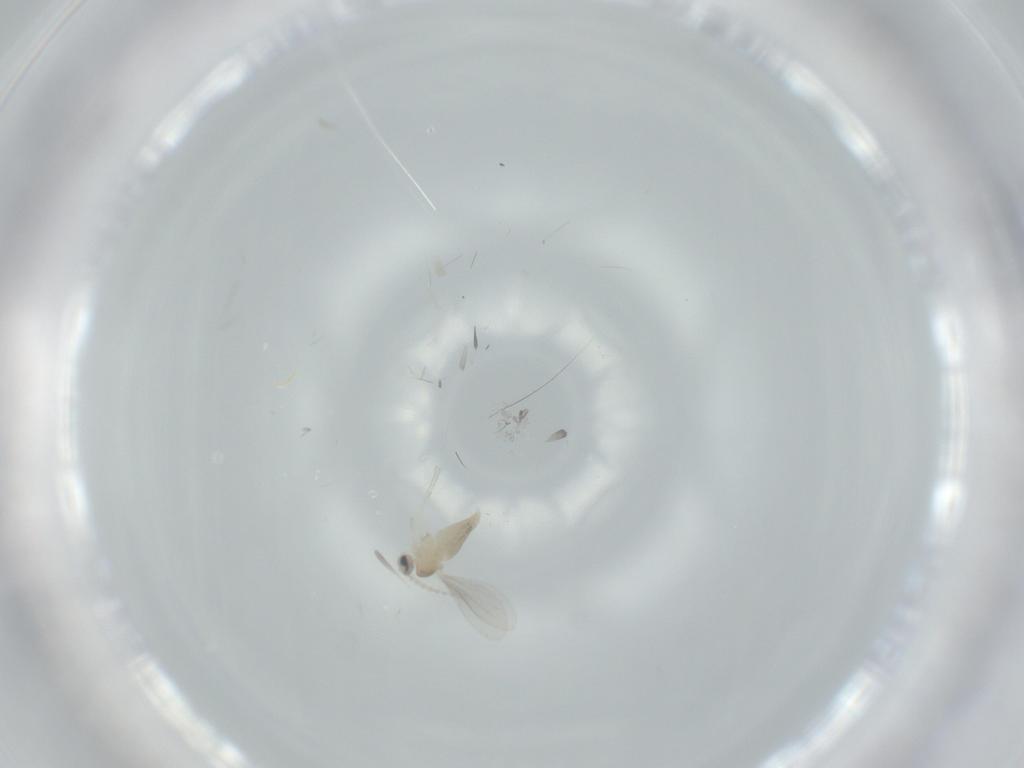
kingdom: Animalia
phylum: Arthropoda
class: Insecta
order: Diptera
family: Cecidomyiidae
